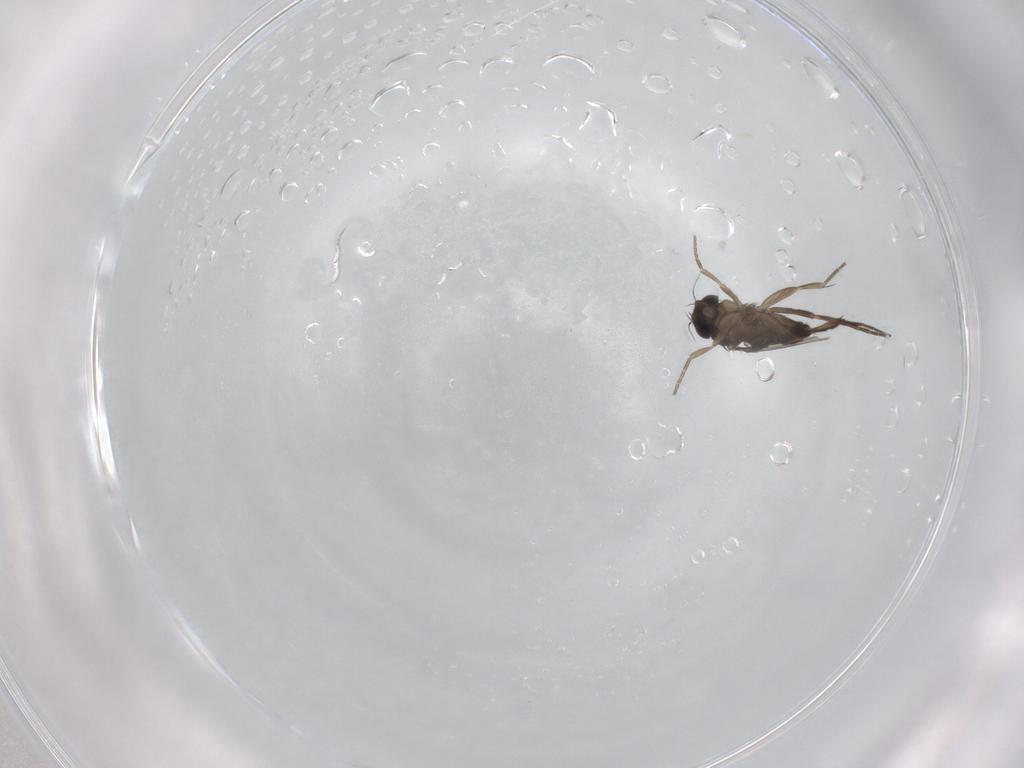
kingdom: Animalia
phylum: Arthropoda
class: Insecta
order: Diptera
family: Phoridae
